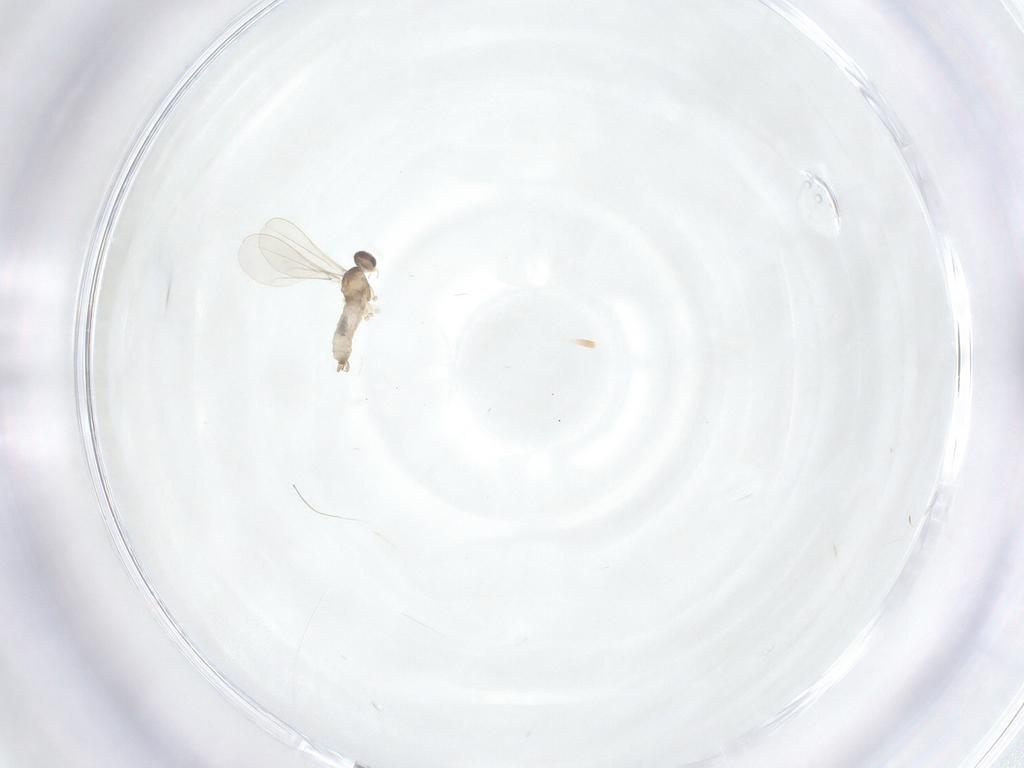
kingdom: Animalia
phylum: Arthropoda
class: Insecta
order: Diptera
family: Cecidomyiidae
